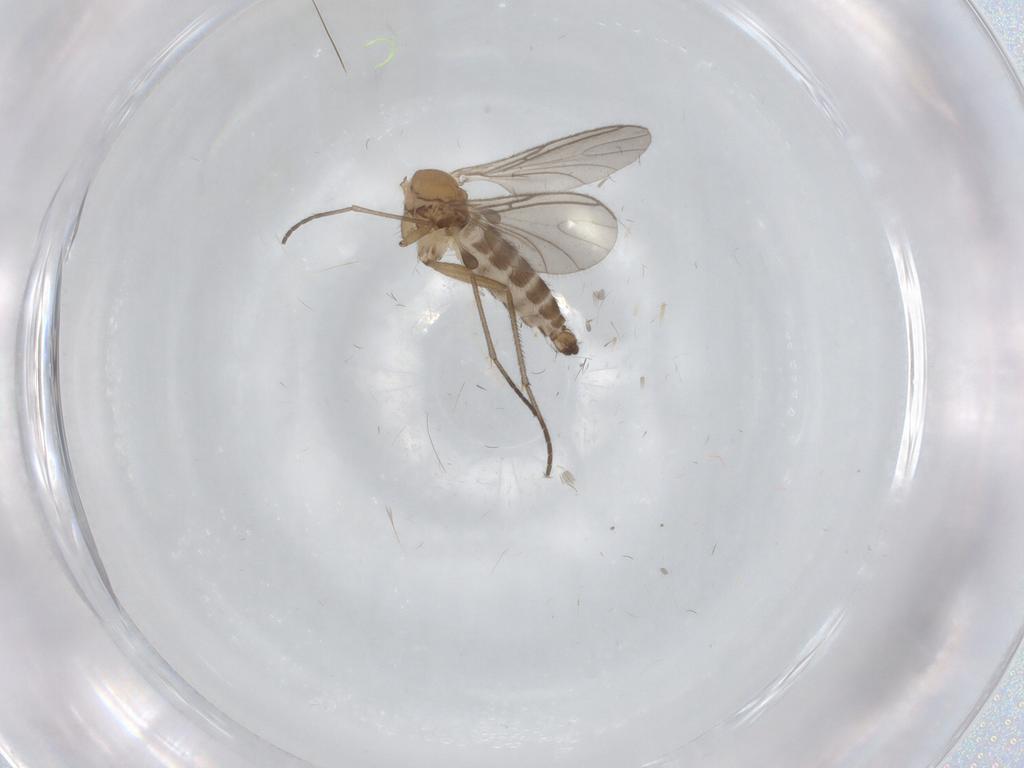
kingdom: Animalia
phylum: Arthropoda
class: Insecta
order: Diptera
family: Sciaridae
